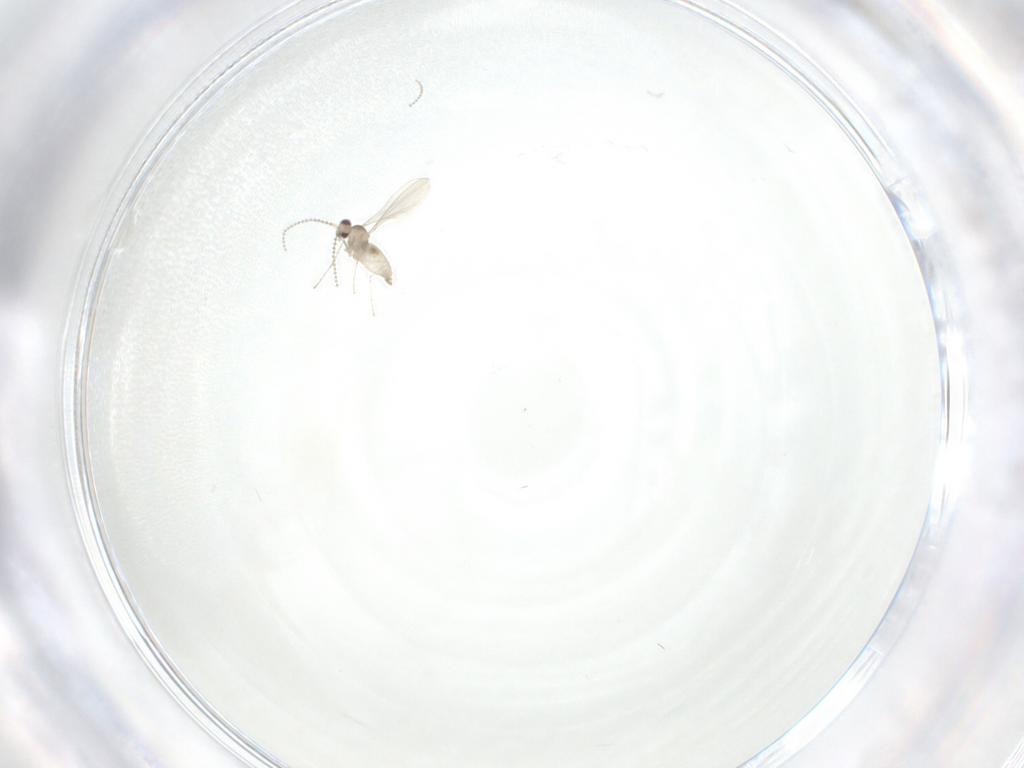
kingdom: Animalia
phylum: Arthropoda
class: Insecta
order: Diptera
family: Cecidomyiidae
